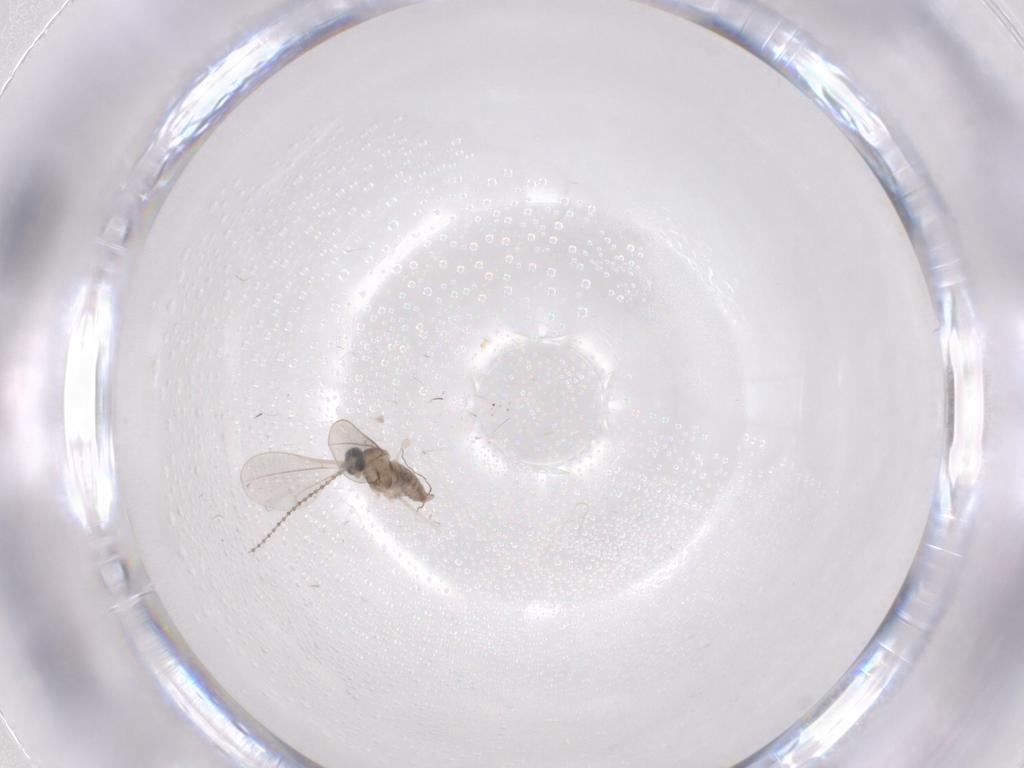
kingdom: Animalia
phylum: Arthropoda
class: Insecta
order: Diptera
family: Cecidomyiidae
